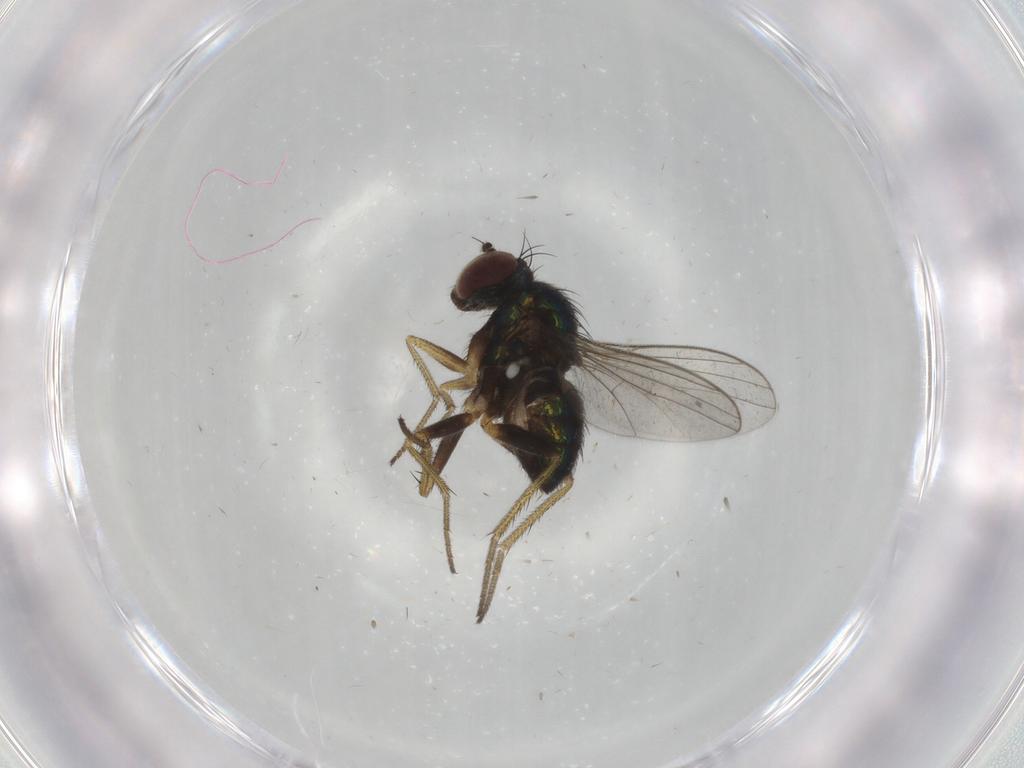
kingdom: Animalia
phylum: Arthropoda
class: Insecta
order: Diptera
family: Dolichopodidae
